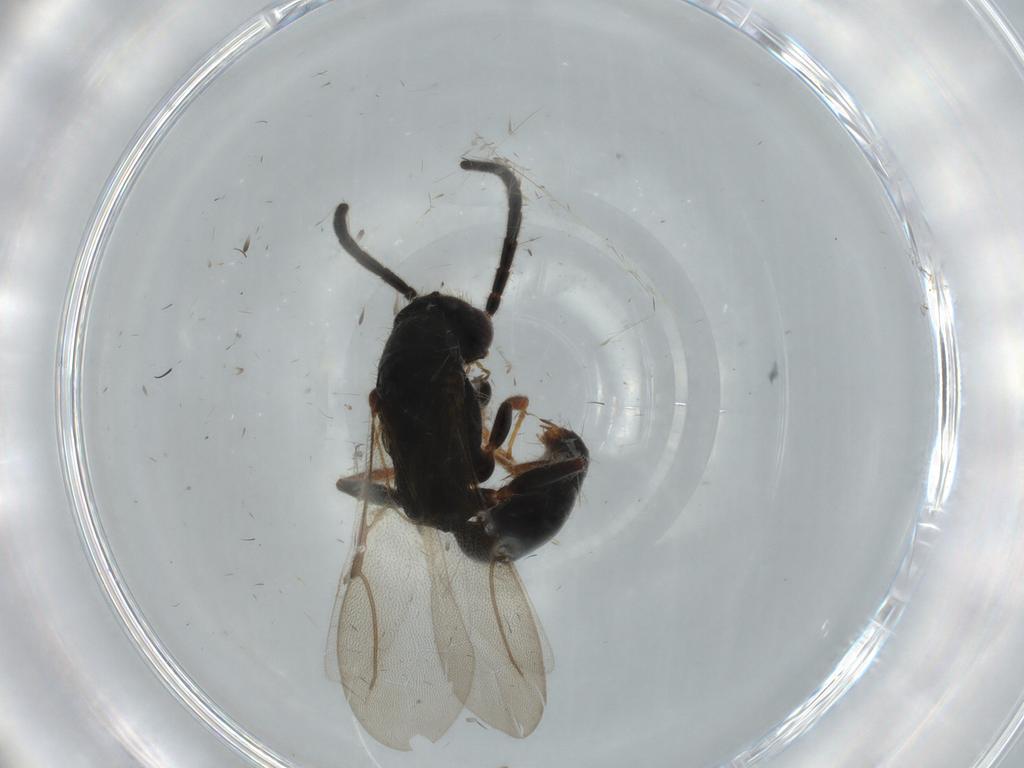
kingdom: Animalia
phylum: Arthropoda
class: Insecta
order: Hymenoptera
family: Bethylidae
